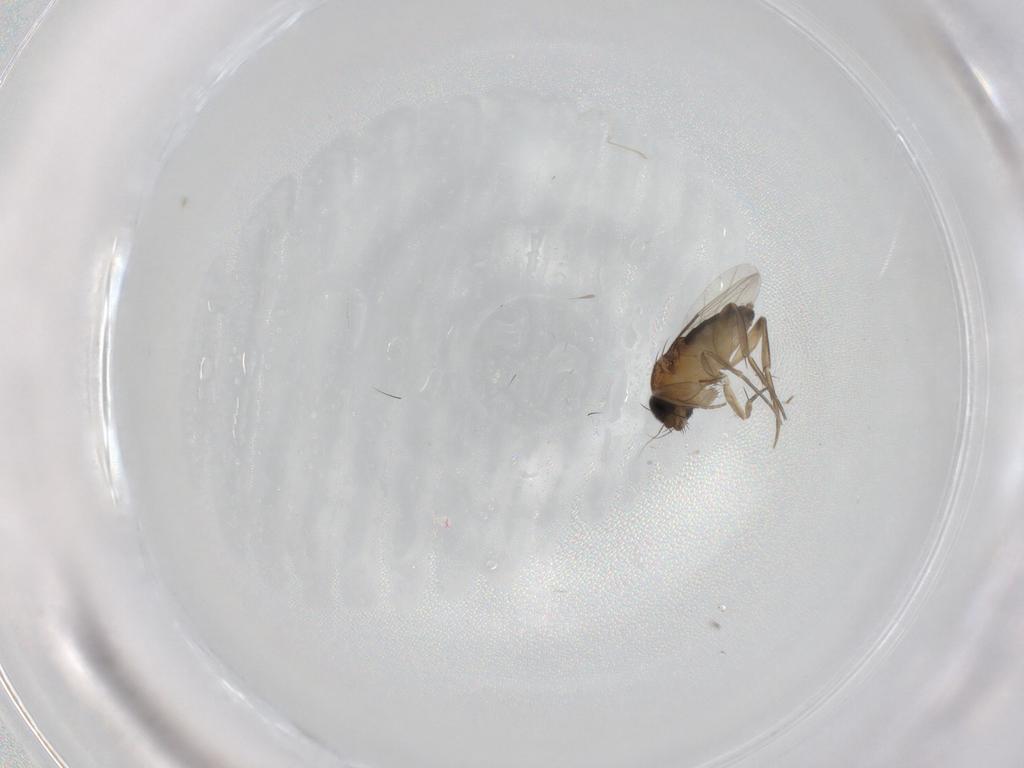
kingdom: Animalia
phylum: Arthropoda
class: Insecta
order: Diptera
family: Phoridae
